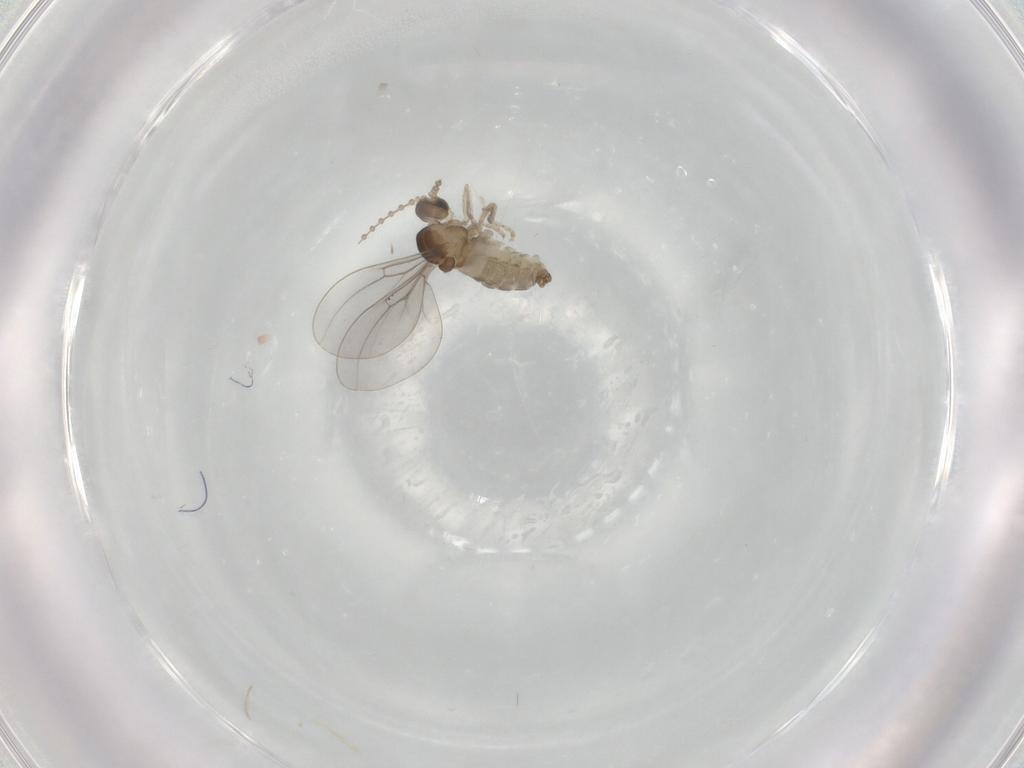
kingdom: Animalia
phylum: Arthropoda
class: Insecta
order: Diptera
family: Cecidomyiidae
